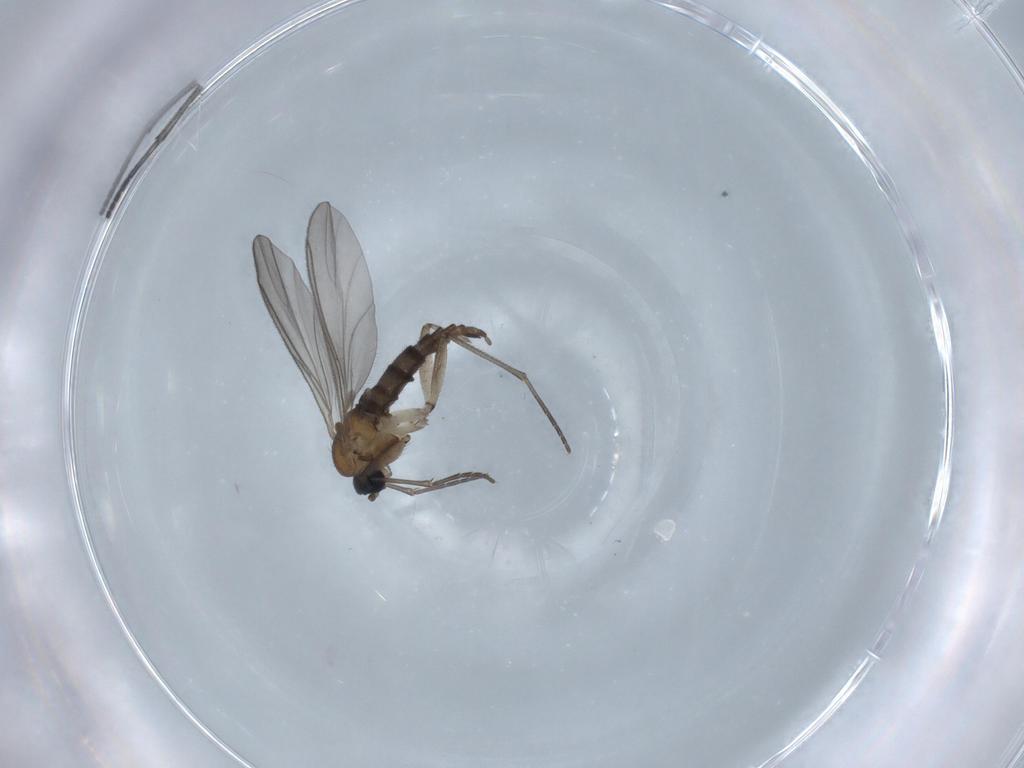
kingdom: Animalia
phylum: Arthropoda
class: Insecta
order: Diptera
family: Sciaridae
